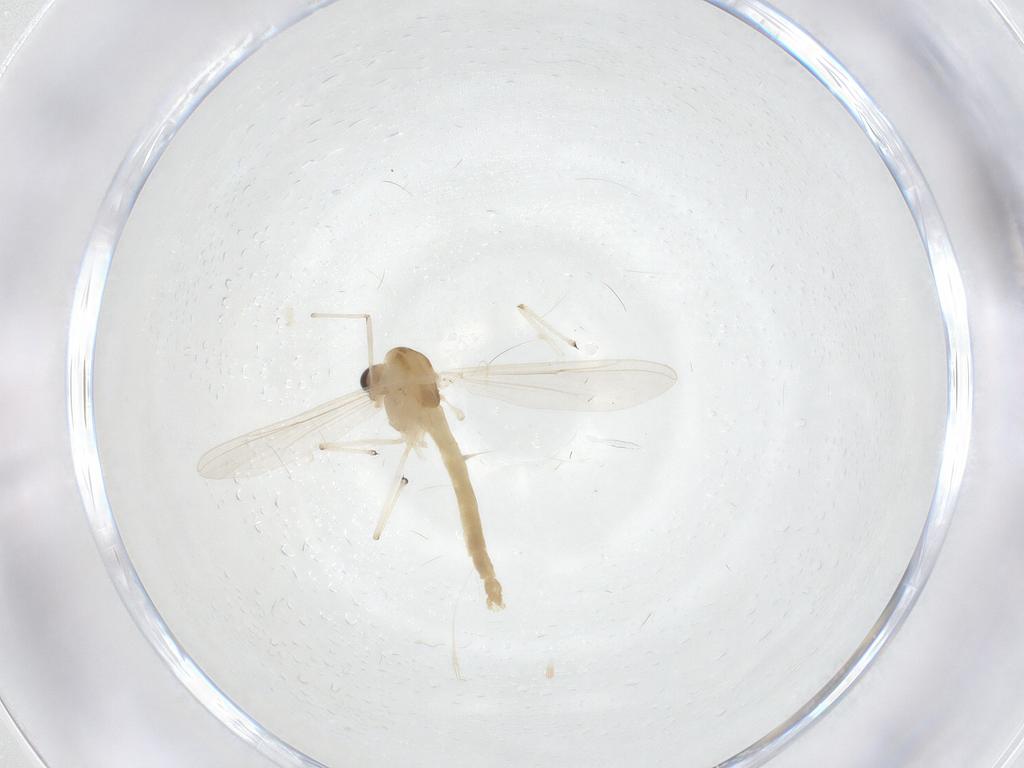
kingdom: Animalia
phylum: Arthropoda
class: Insecta
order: Diptera
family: Chironomidae
